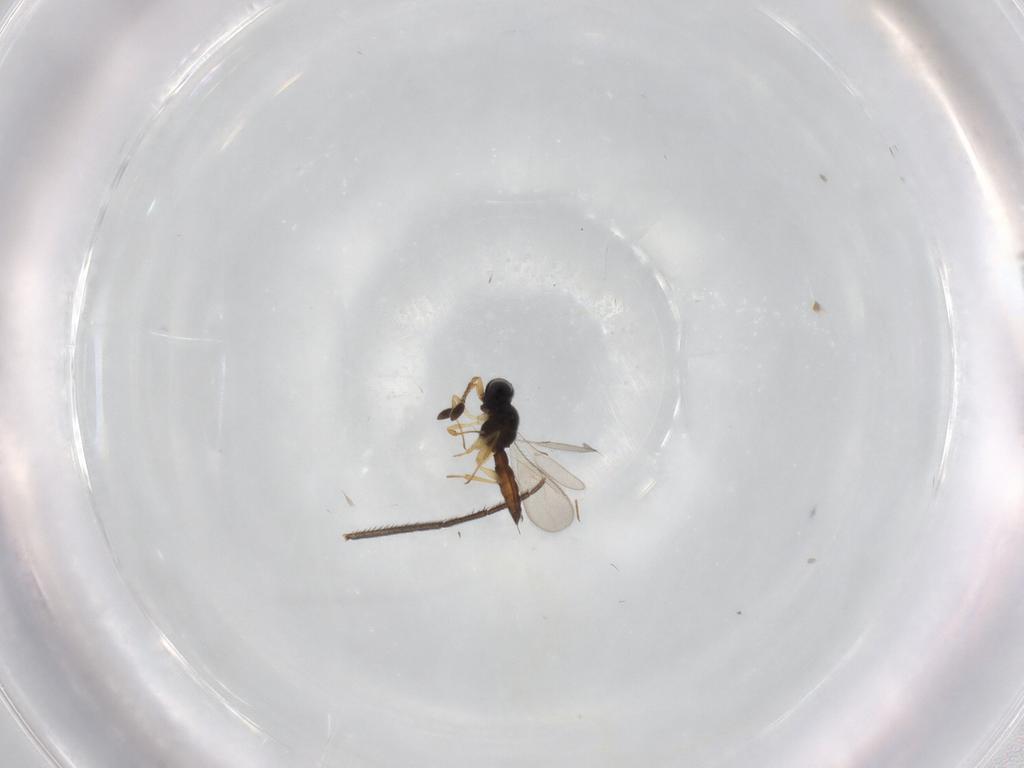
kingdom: Animalia
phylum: Arthropoda
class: Insecta
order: Hymenoptera
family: Scelionidae
